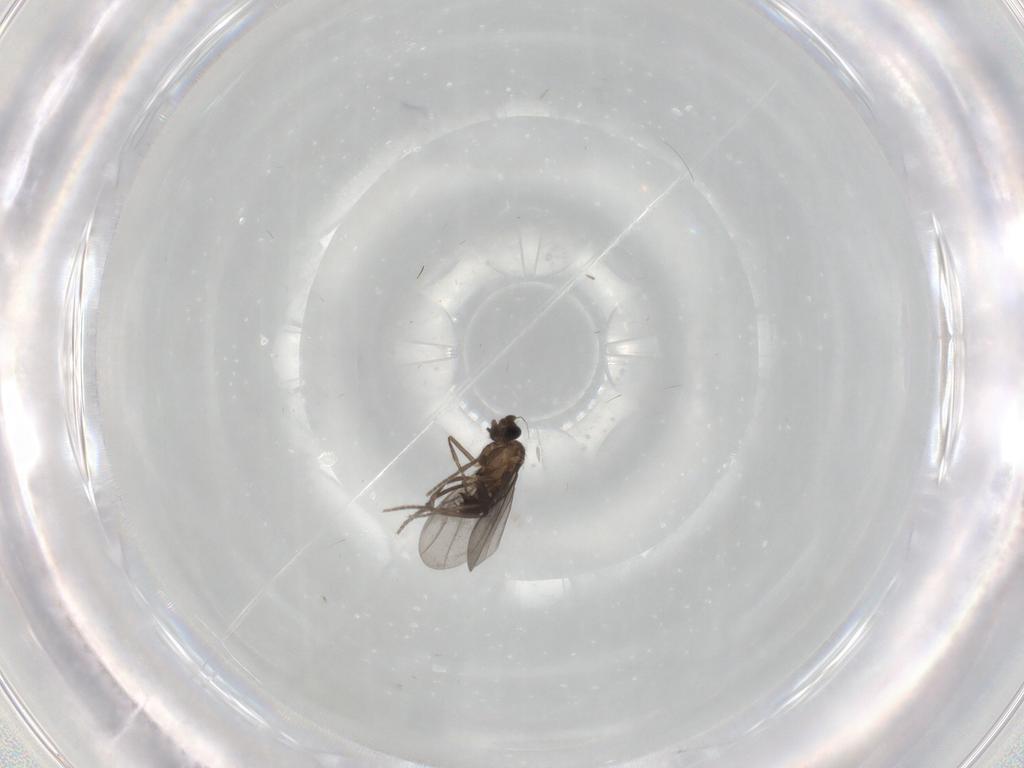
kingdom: Animalia
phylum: Arthropoda
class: Insecta
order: Diptera
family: Phoridae
